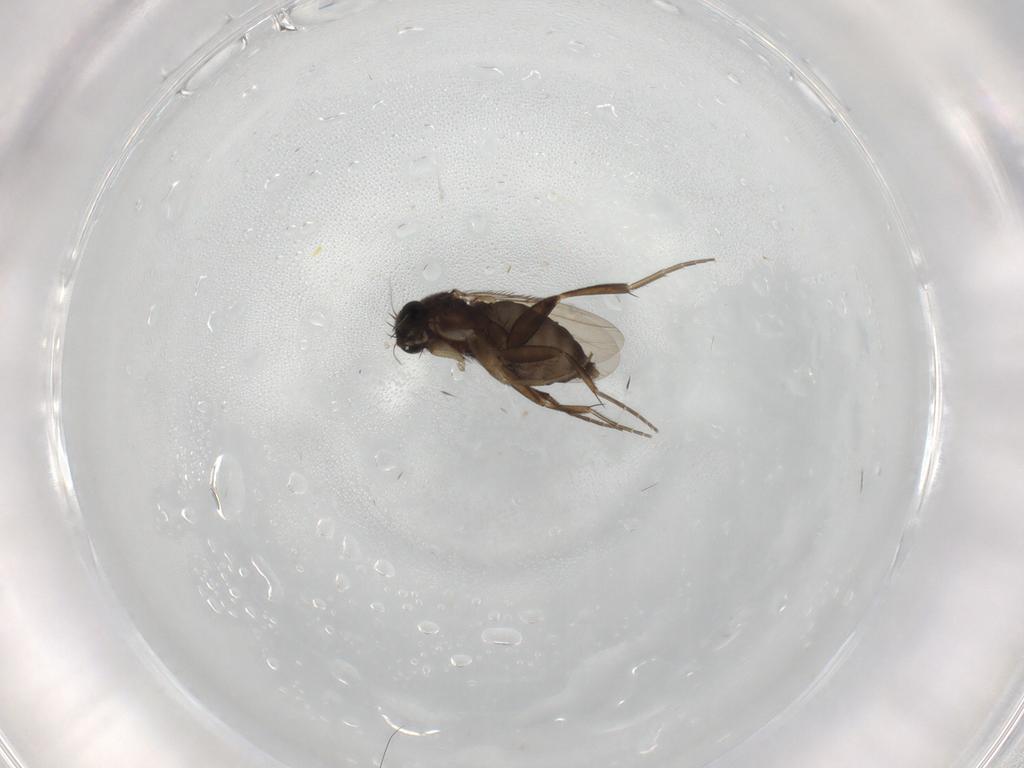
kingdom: Animalia
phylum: Arthropoda
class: Insecta
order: Diptera
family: Phoridae
